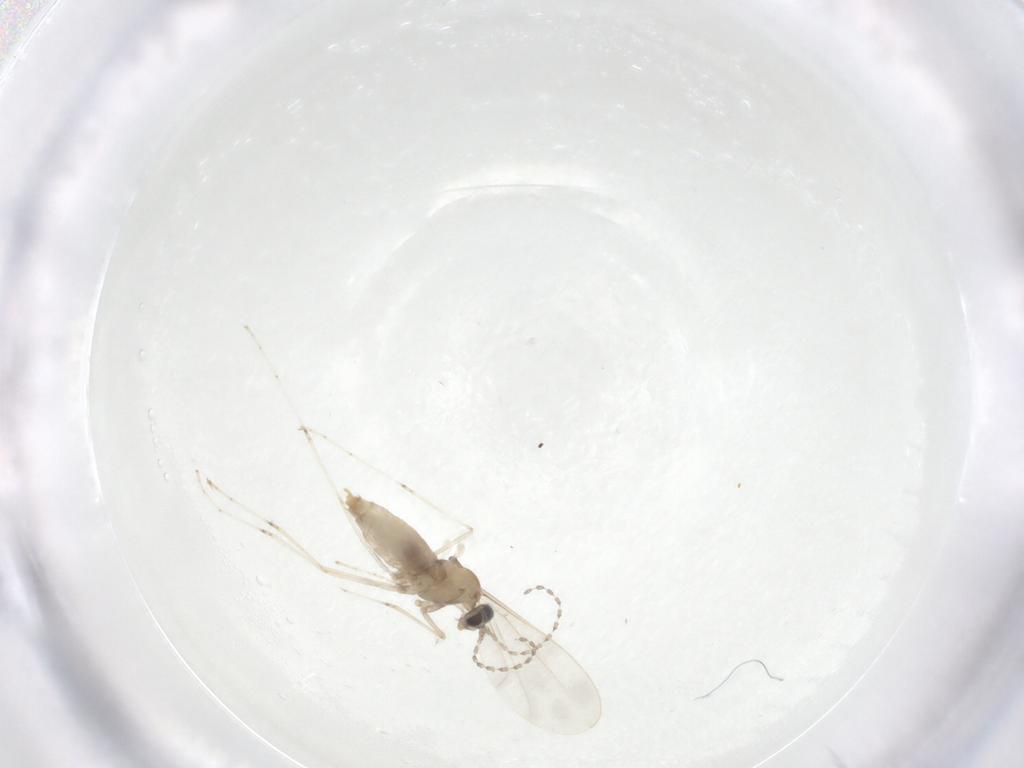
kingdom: Animalia
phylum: Arthropoda
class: Insecta
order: Diptera
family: Cecidomyiidae
